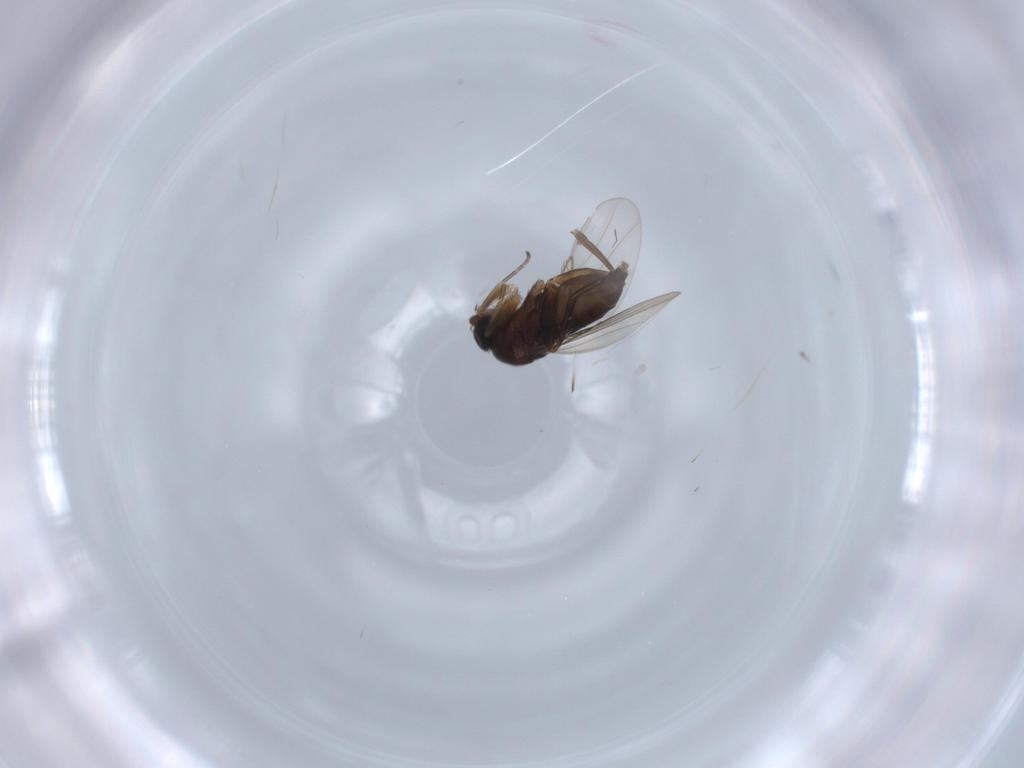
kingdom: Animalia
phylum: Arthropoda
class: Insecta
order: Diptera
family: Phoridae
